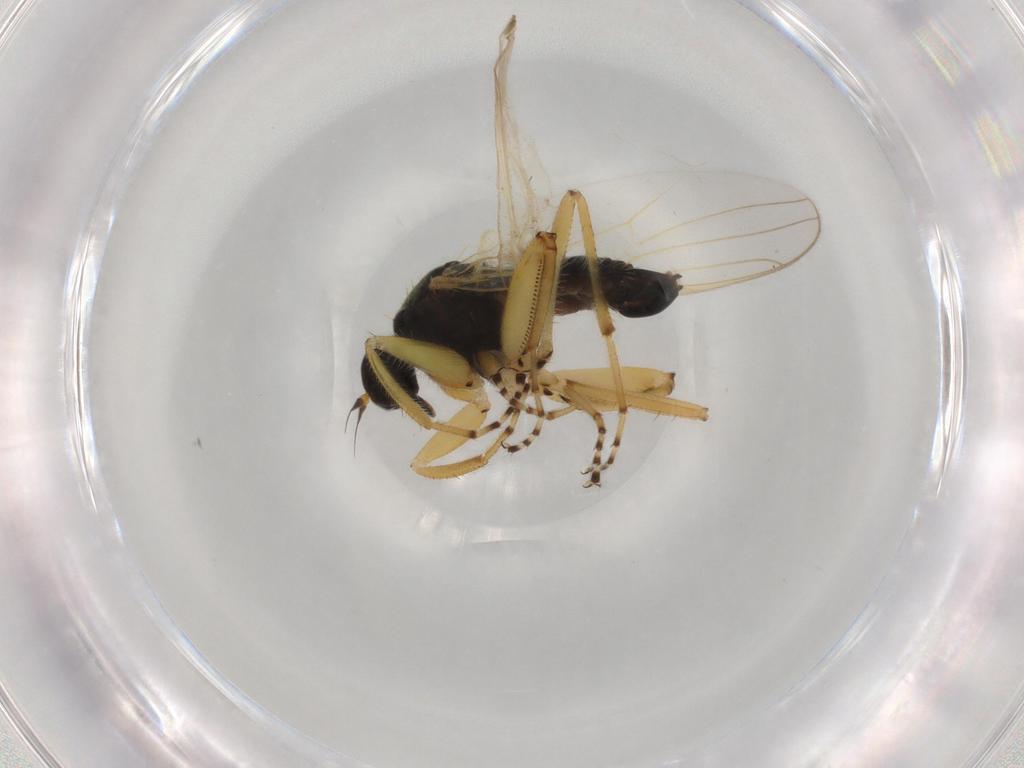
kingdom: Animalia
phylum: Arthropoda
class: Insecta
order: Diptera
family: Hybotidae
